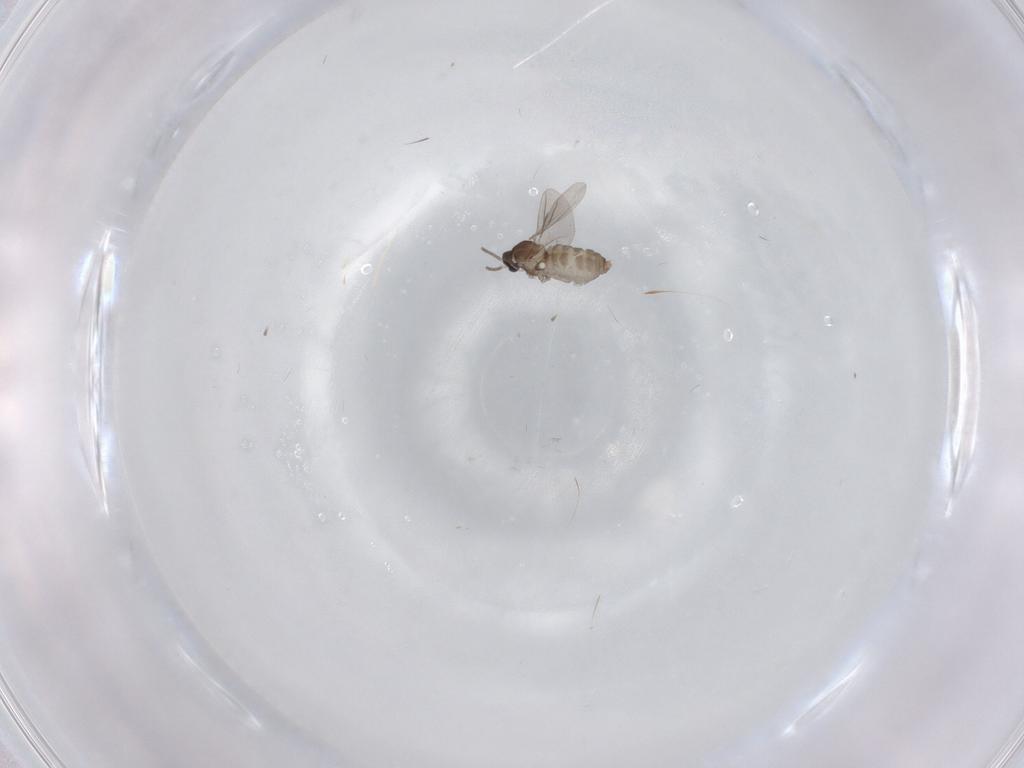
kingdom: Animalia
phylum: Arthropoda
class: Insecta
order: Diptera
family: Cecidomyiidae
